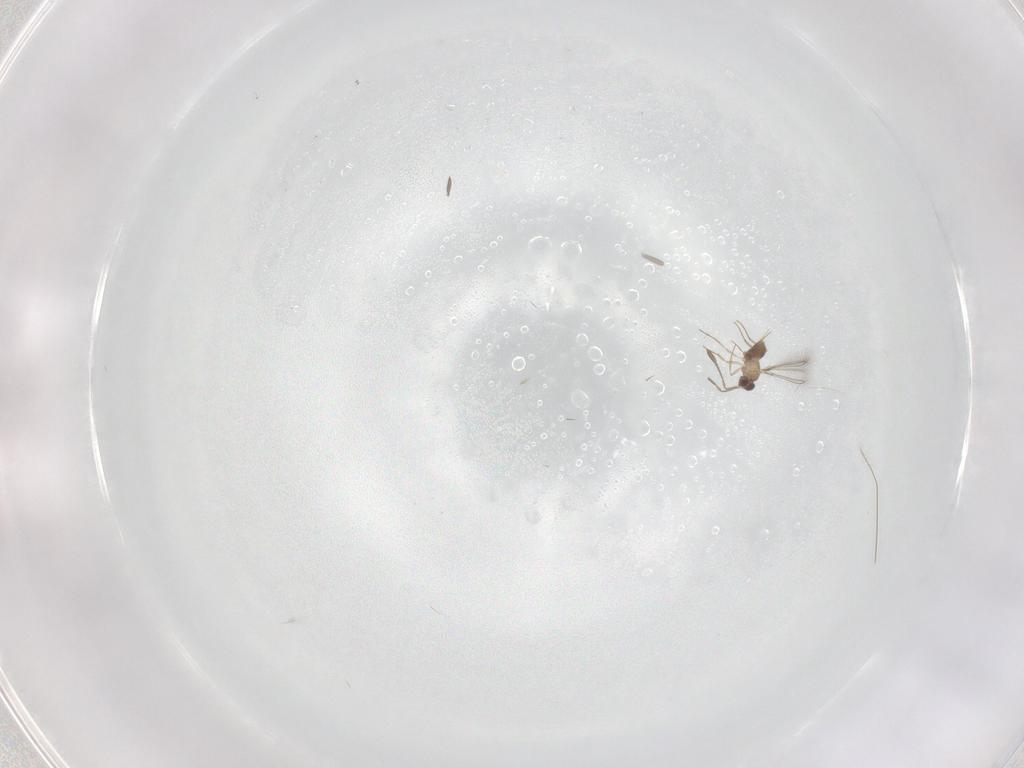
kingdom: Animalia
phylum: Arthropoda
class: Insecta
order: Hymenoptera
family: Mymaridae
